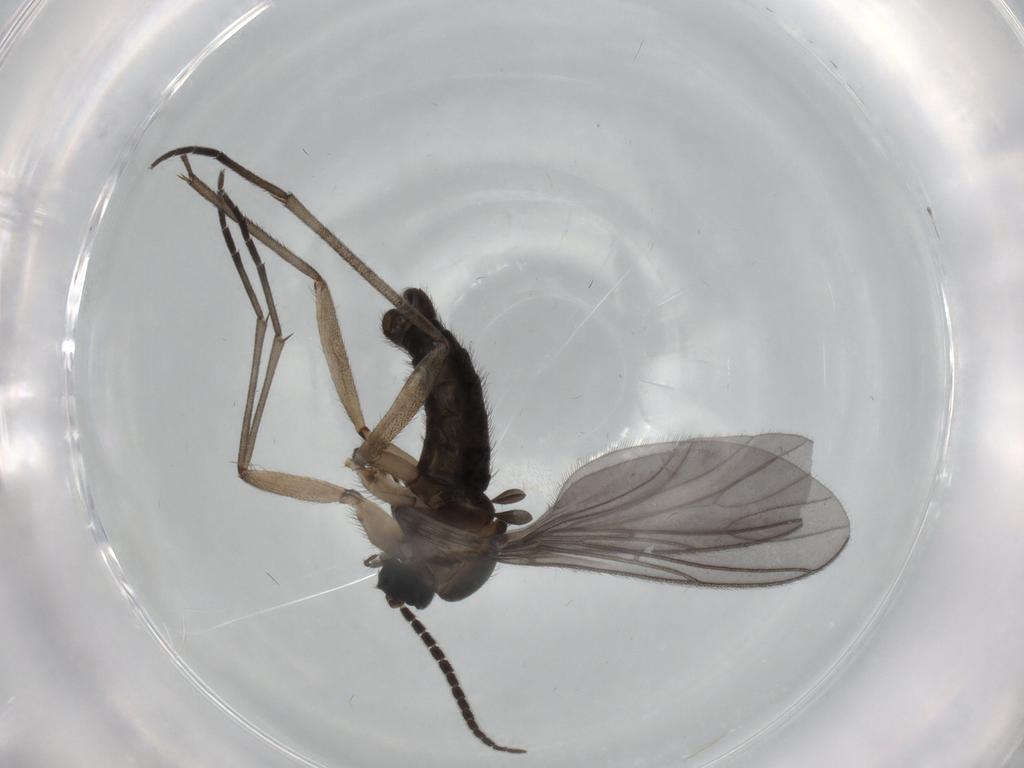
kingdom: Animalia
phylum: Arthropoda
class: Insecta
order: Diptera
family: Sciaridae
